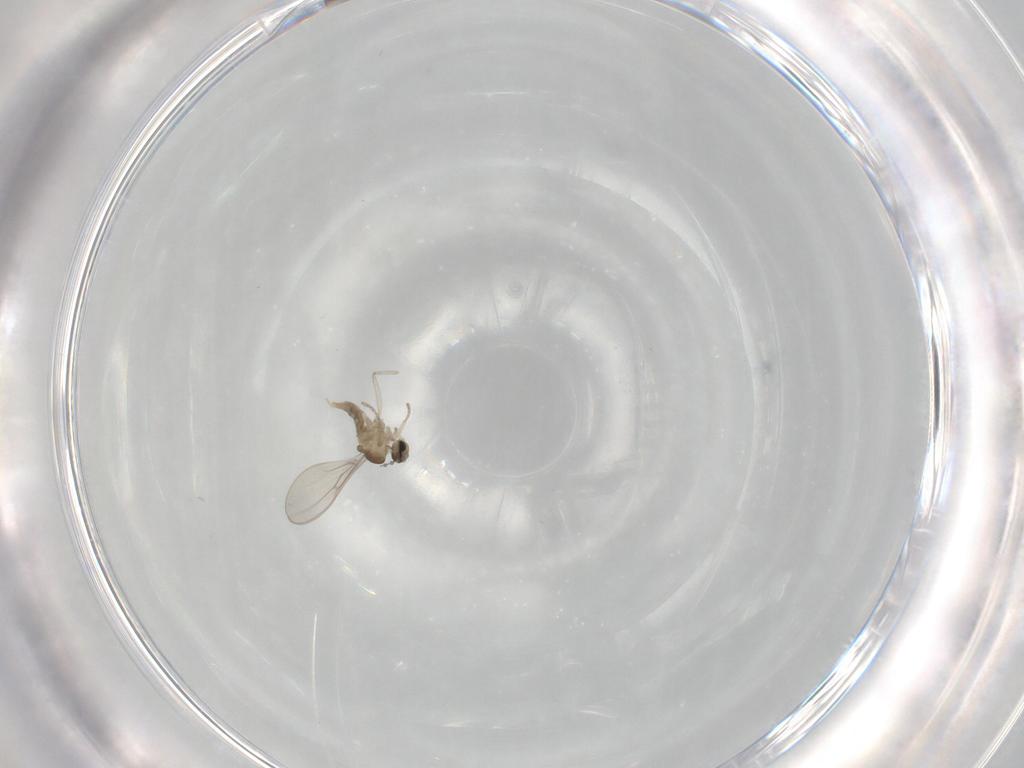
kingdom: Animalia
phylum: Arthropoda
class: Insecta
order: Diptera
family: Cecidomyiidae
